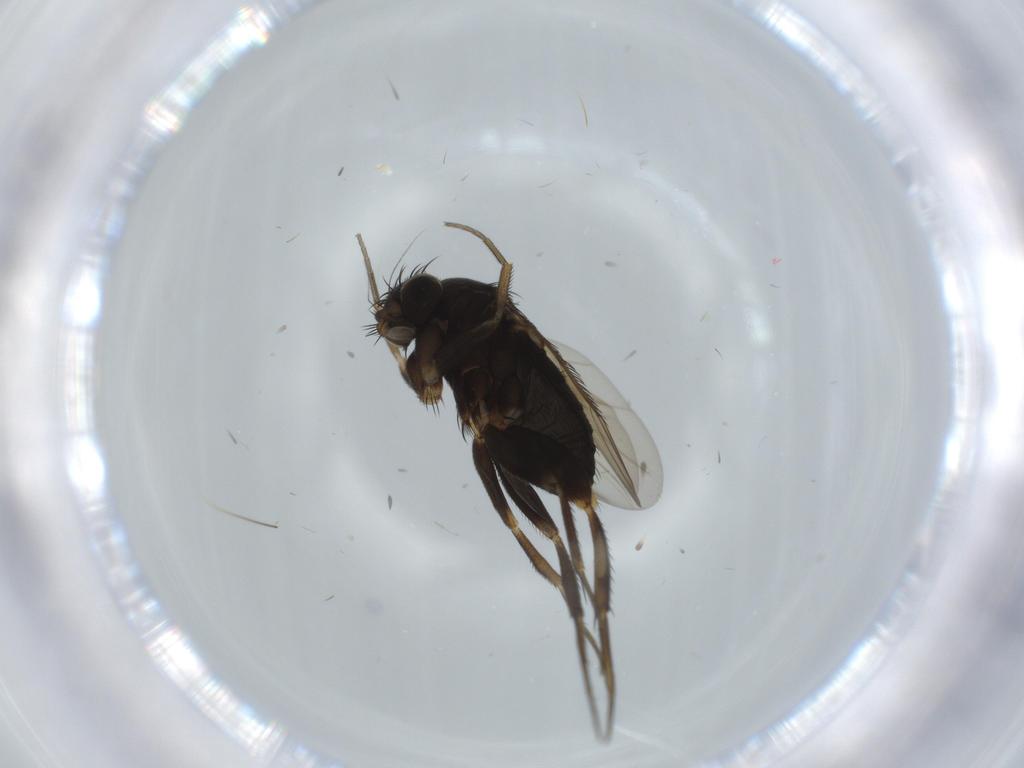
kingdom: Animalia
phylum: Arthropoda
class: Insecta
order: Diptera
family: Phoridae
